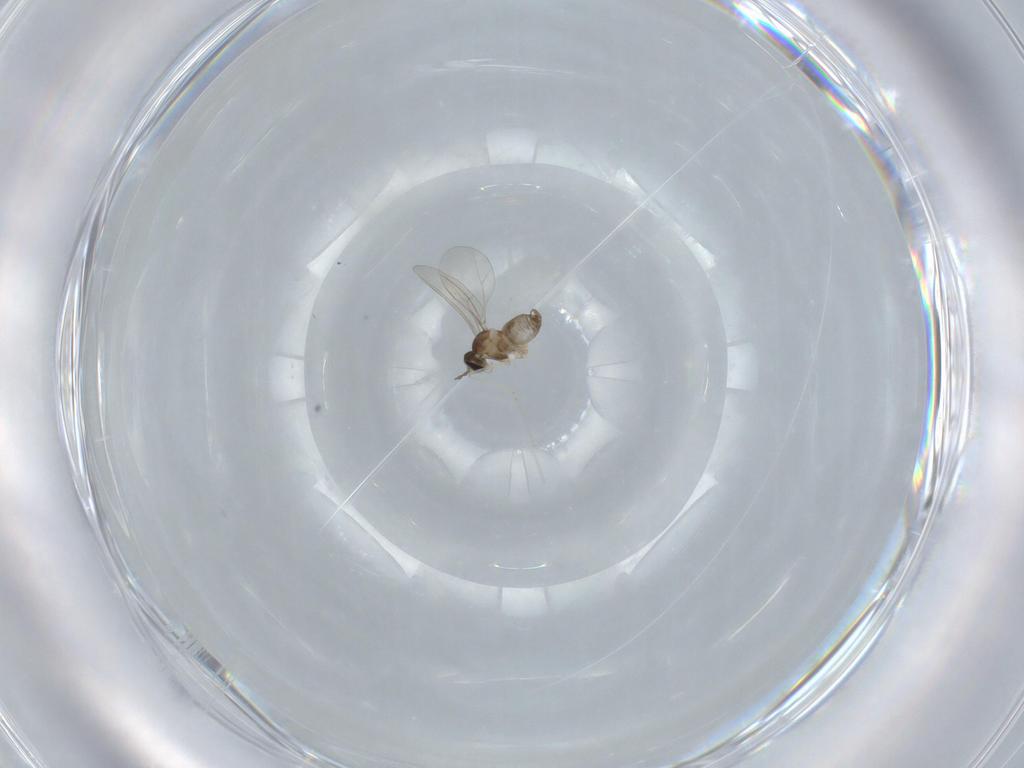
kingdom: Animalia
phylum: Arthropoda
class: Insecta
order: Diptera
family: Cecidomyiidae
